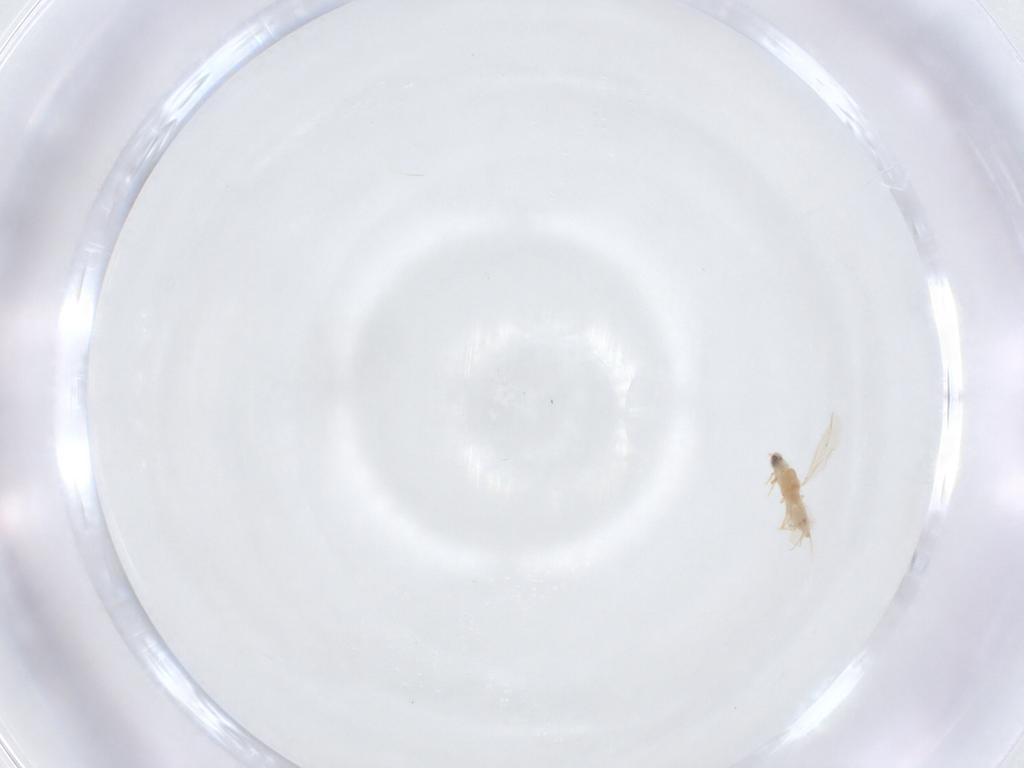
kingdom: Animalia
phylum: Arthropoda
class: Insecta
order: Hemiptera
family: Diaspididae
